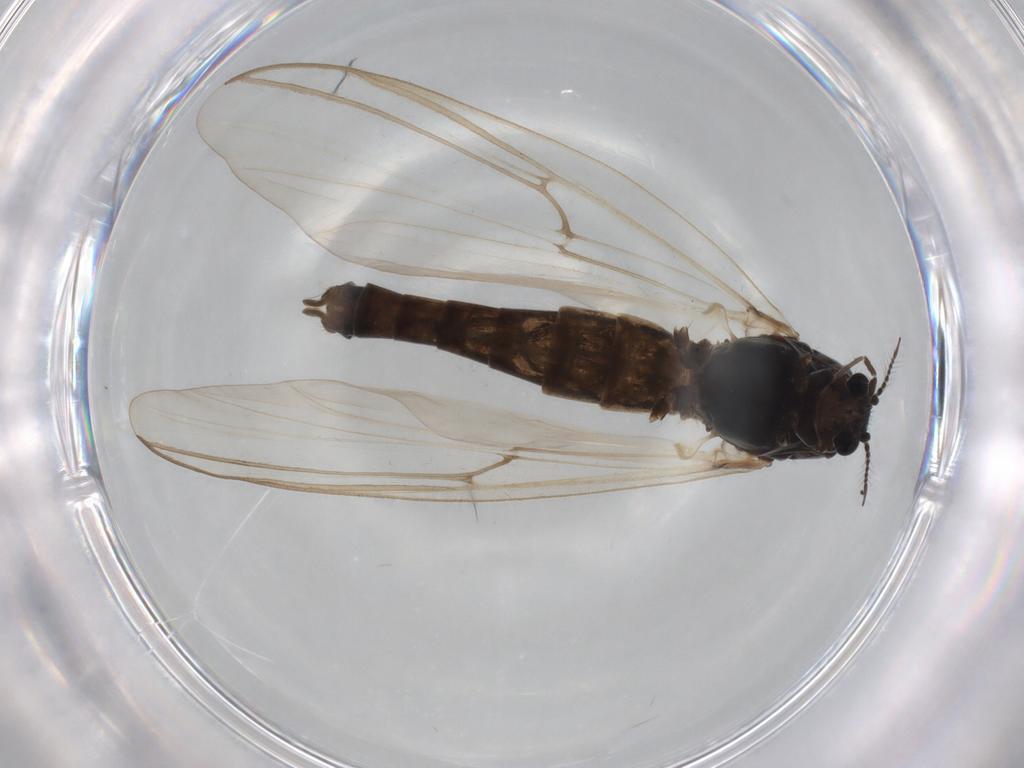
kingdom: Animalia
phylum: Arthropoda
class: Insecta
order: Diptera
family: Chironomidae
